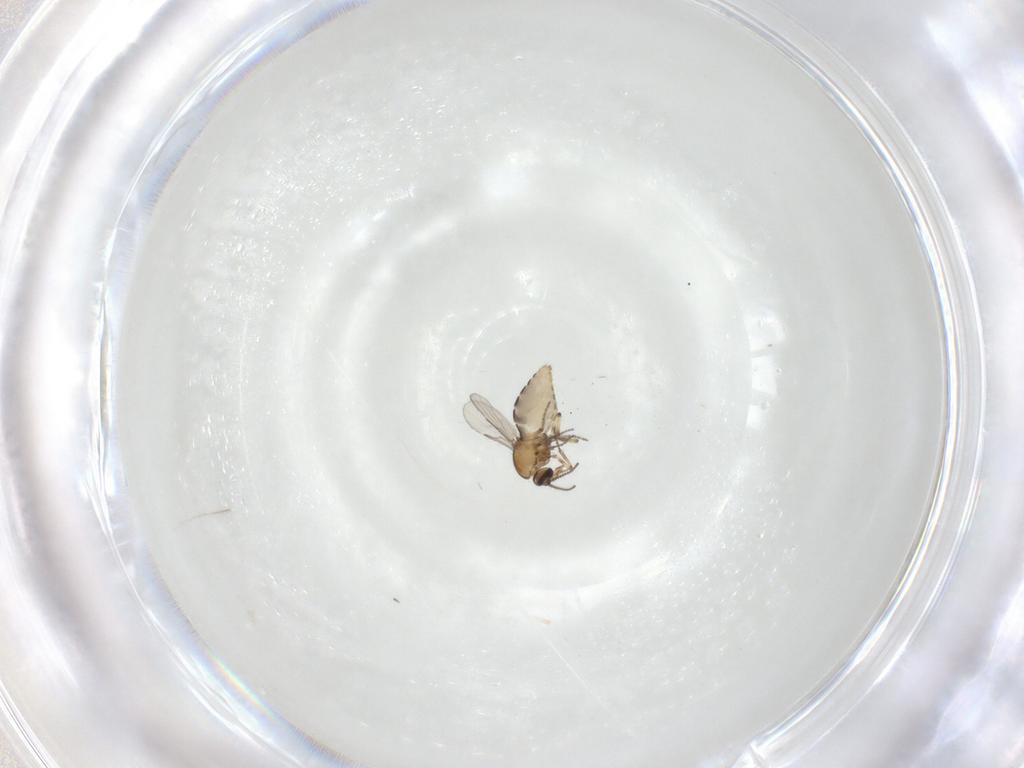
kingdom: Animalia
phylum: Arthropoda
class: Insecta
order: Diptera
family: Ceratopogonidae
